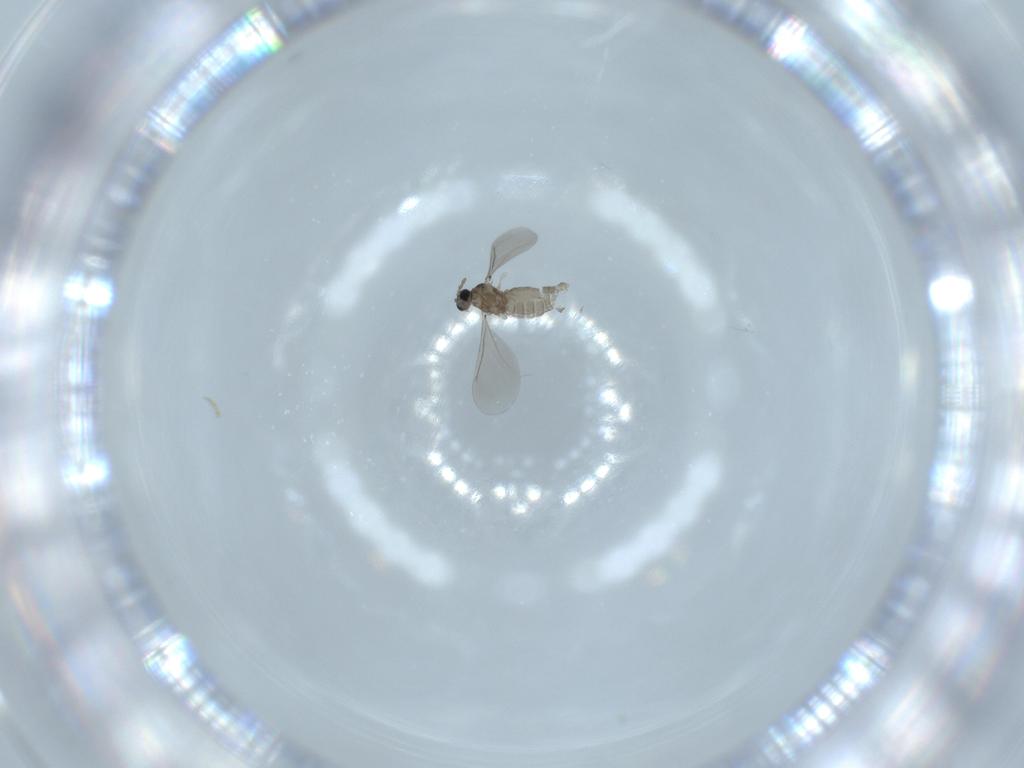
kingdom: Animalia
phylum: Arthropoda
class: Insecta
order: Diptera
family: Cecidomyiidae
